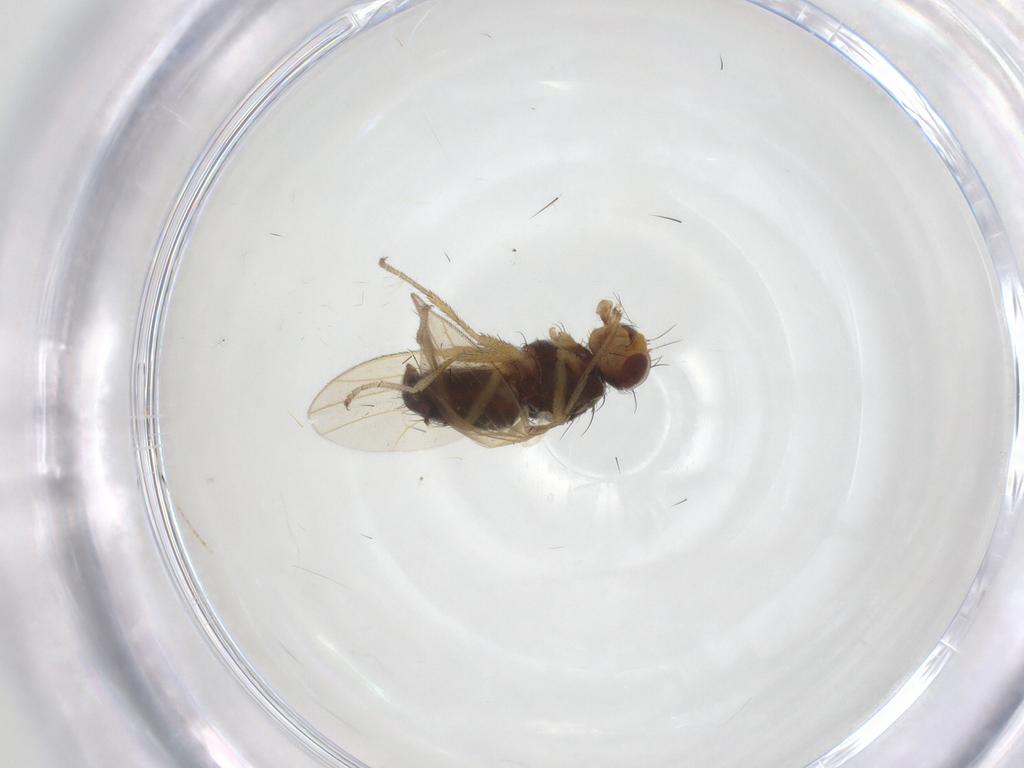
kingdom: Animalia
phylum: Arthropoda
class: Insecta
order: Diptera
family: Heleomyzidae
